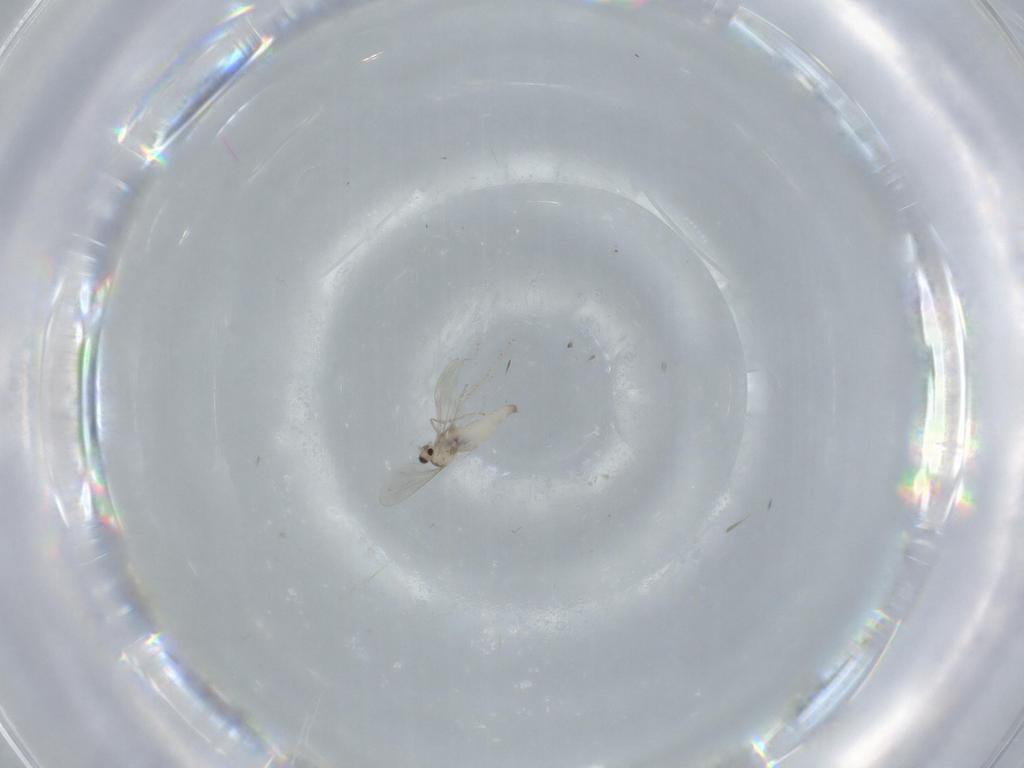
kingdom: Animalia
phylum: Arthropoda
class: Insecta
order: Diptera
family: Cecidomyiidae
